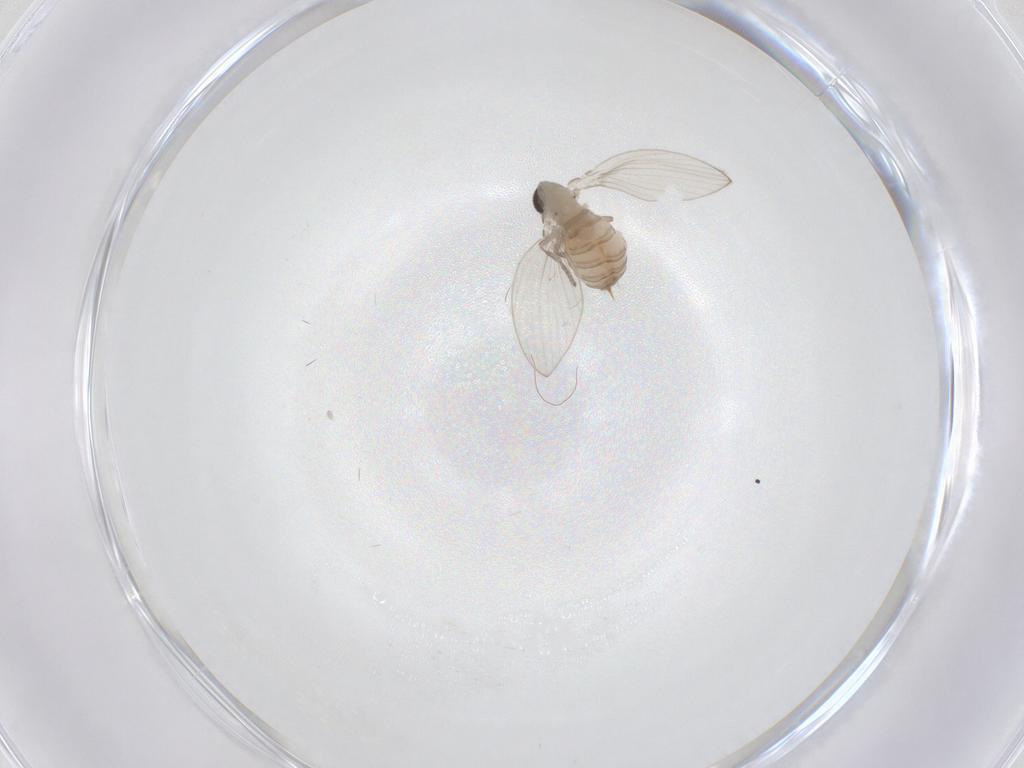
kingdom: Animalia
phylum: Arthropoda
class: Insecta
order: Diptera
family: Psychodidae
